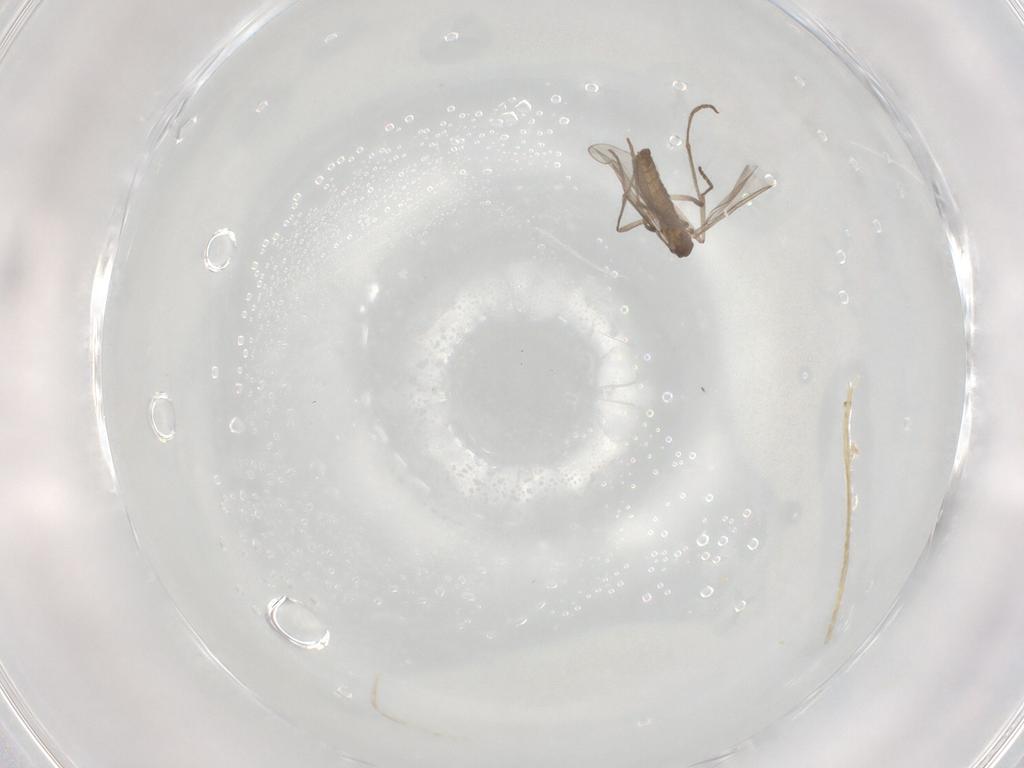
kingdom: Animalia
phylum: Arthropoda
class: Insecta
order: Diptera
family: Cecidomyiidae
